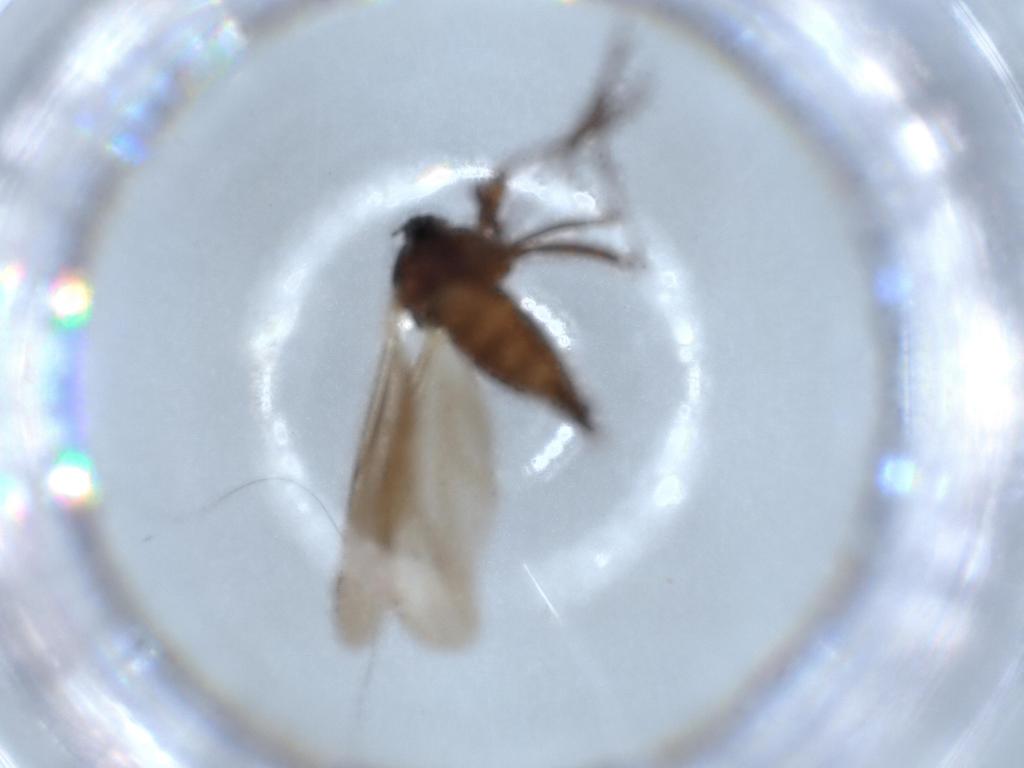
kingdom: Animalia
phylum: Arthropoda
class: Insecta
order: Diptera
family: Sciaridae
